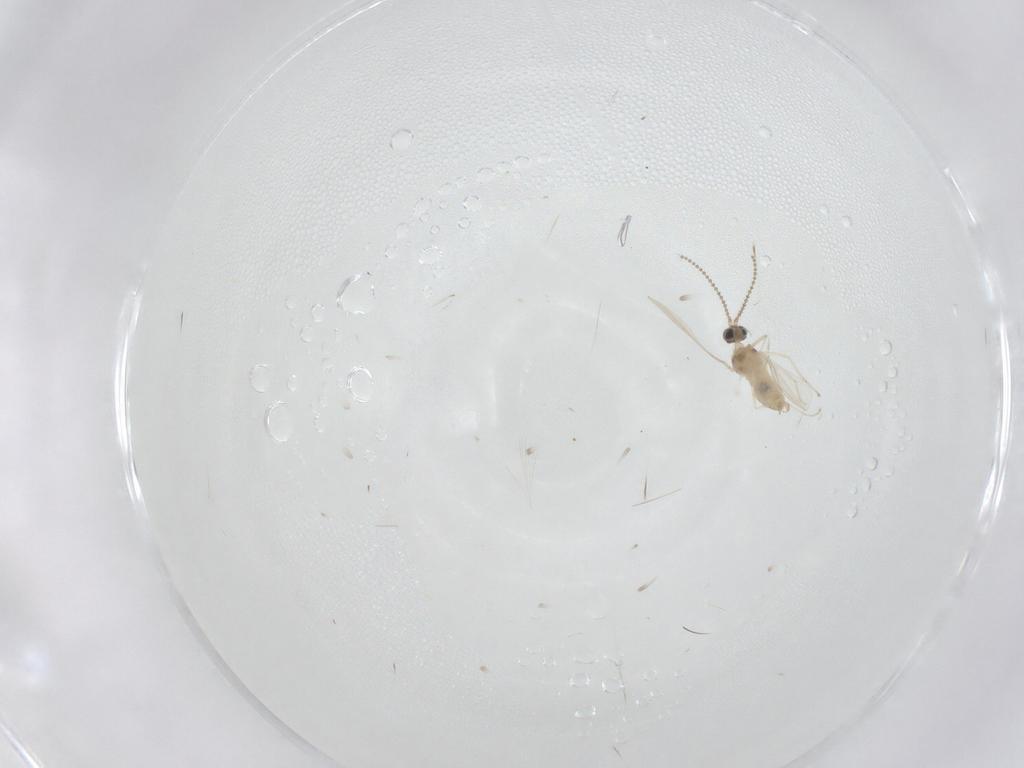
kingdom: Animalia
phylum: Arthropoda
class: Insecta
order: Diptera
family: Cecidomyiidae
